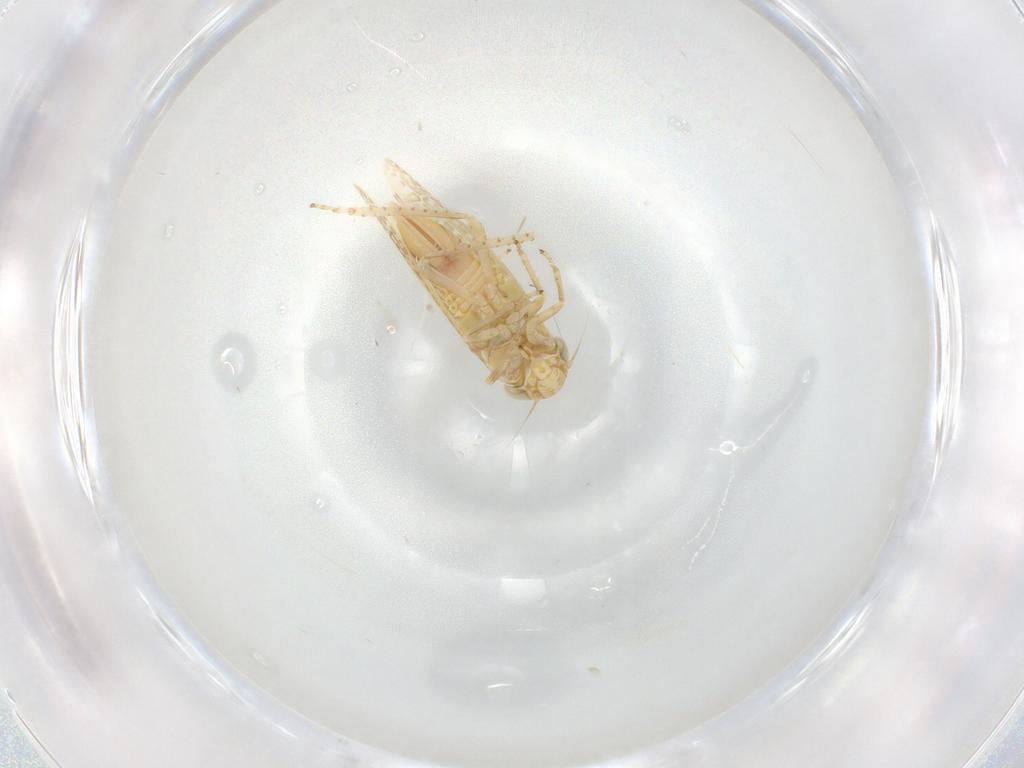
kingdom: Animalia
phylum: Arthropoda
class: Insecta
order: Hemiptera
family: Cicadellidae
